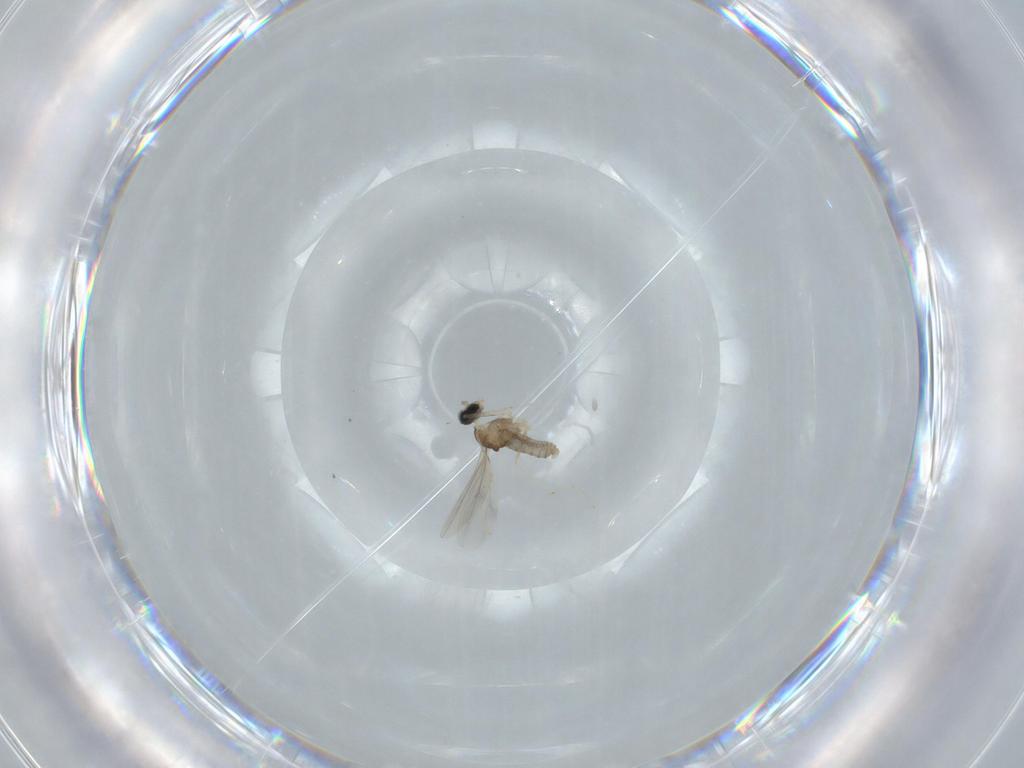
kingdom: Animalia
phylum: Arthropoda
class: Insecta
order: Diptera
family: Cecidomyiidae
